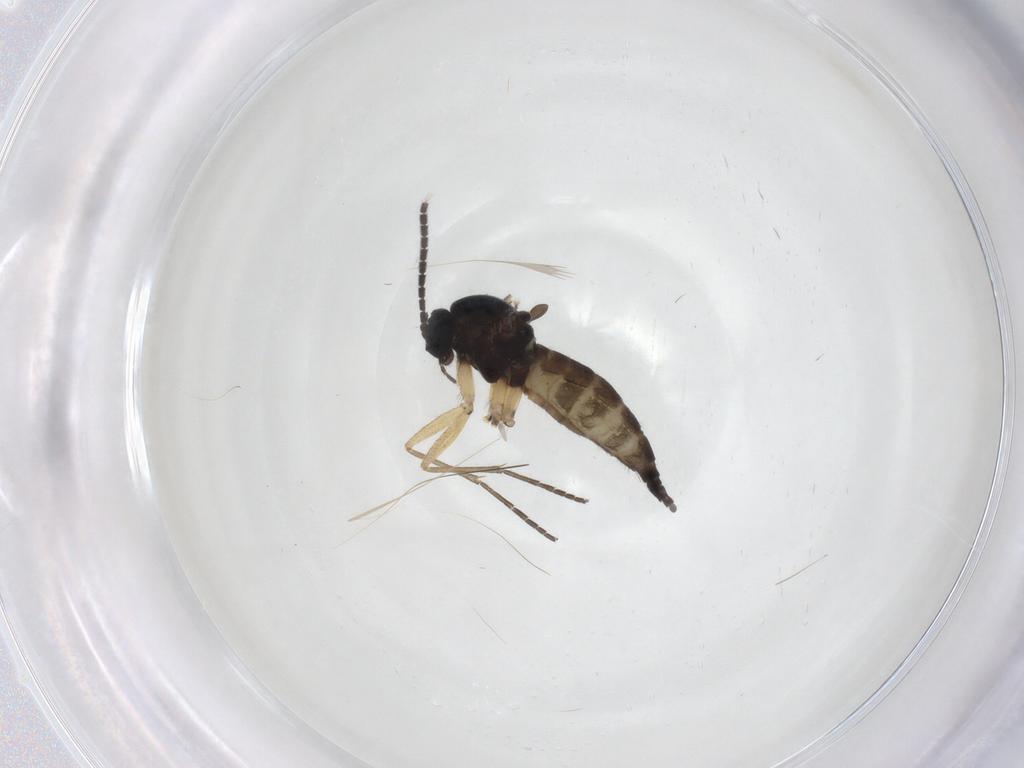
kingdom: Animalia
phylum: Arthropoda
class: Insecta
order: Diptera
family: Sciaridae
